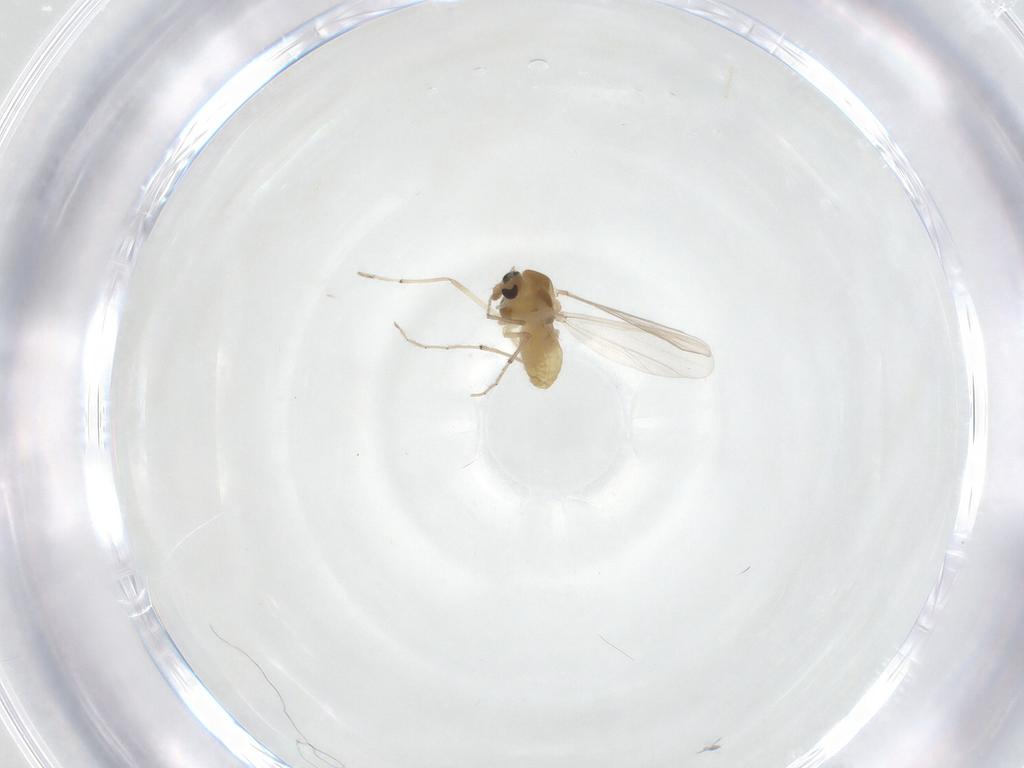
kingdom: Animalia
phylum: Arthropoda
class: Insecta
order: Diptera
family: Chironomidae
